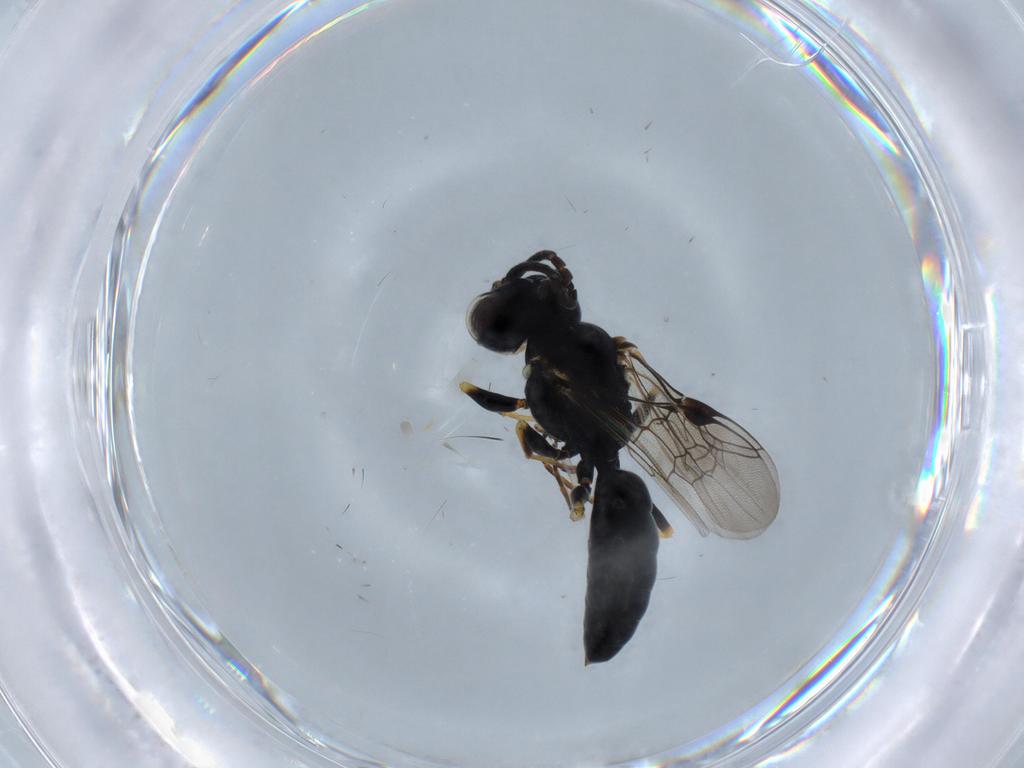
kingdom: Animalia
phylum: Arthropoda
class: Insecta
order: Hymenoptera
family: Crabronidae
